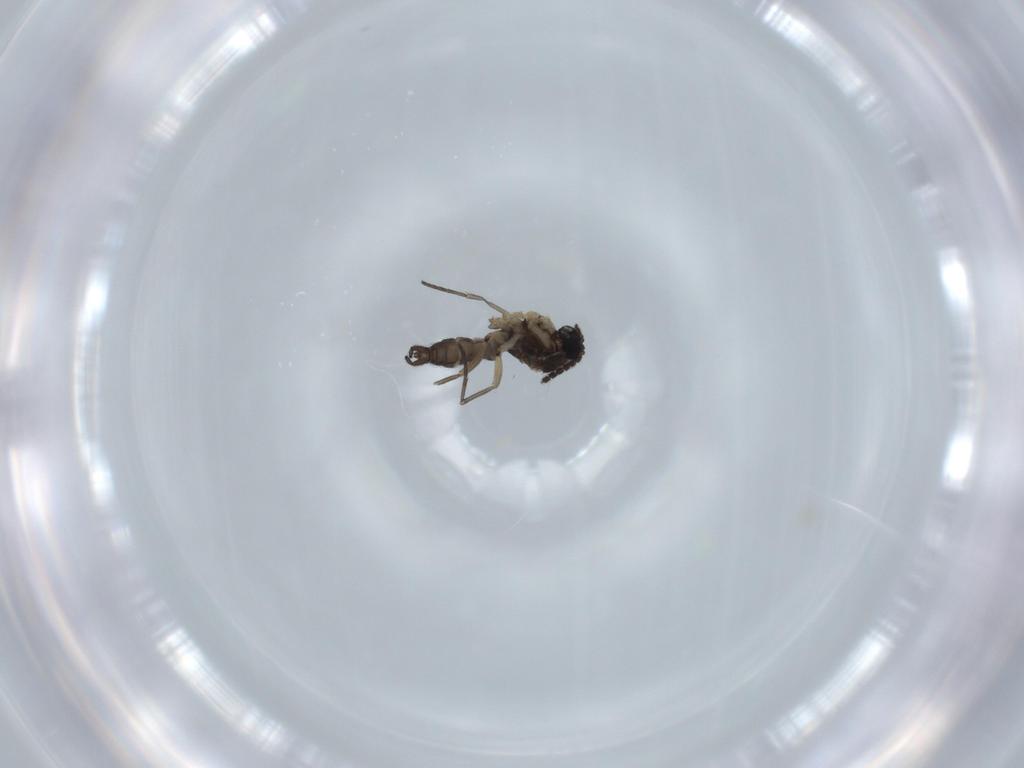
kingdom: Animalia
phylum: Arthropoda
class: Insecta
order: Diptera
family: Sciaridae
